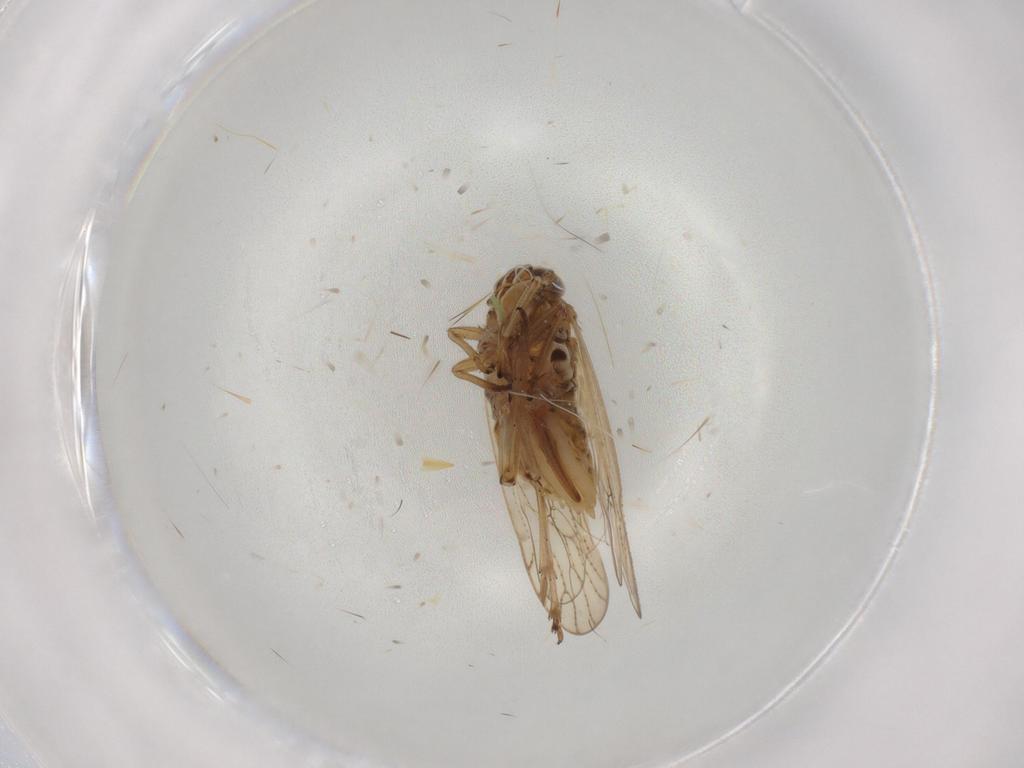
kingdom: Animalia
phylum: Arthropoda
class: Insecta
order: Hemiptera
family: Delphacidae
